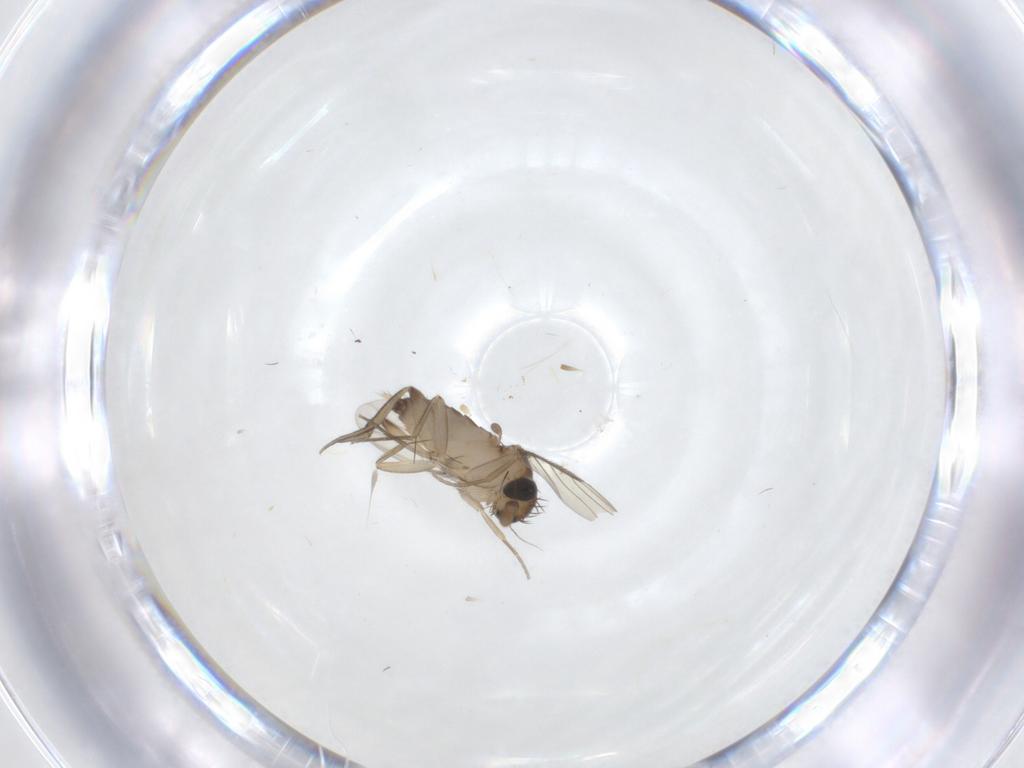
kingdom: Animalia
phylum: Arthropoda
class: Insecta
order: Diptera
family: Phoridae
